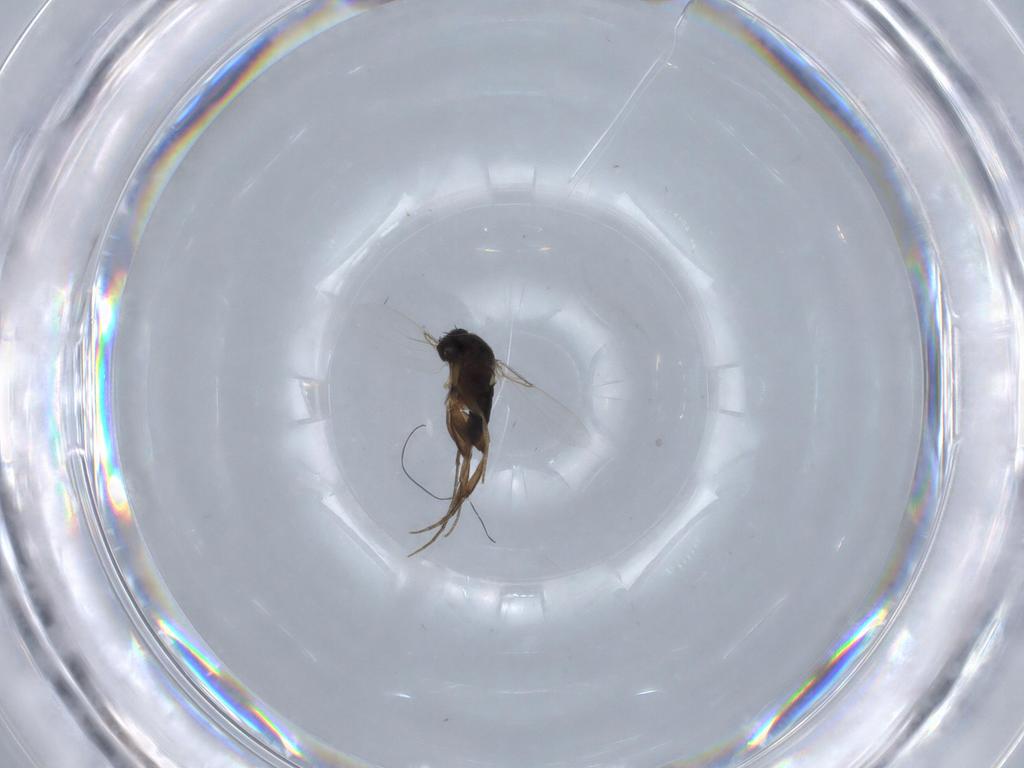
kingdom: Animalia
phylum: Arthropoda
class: Insecta
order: Diptera
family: Phoridae
